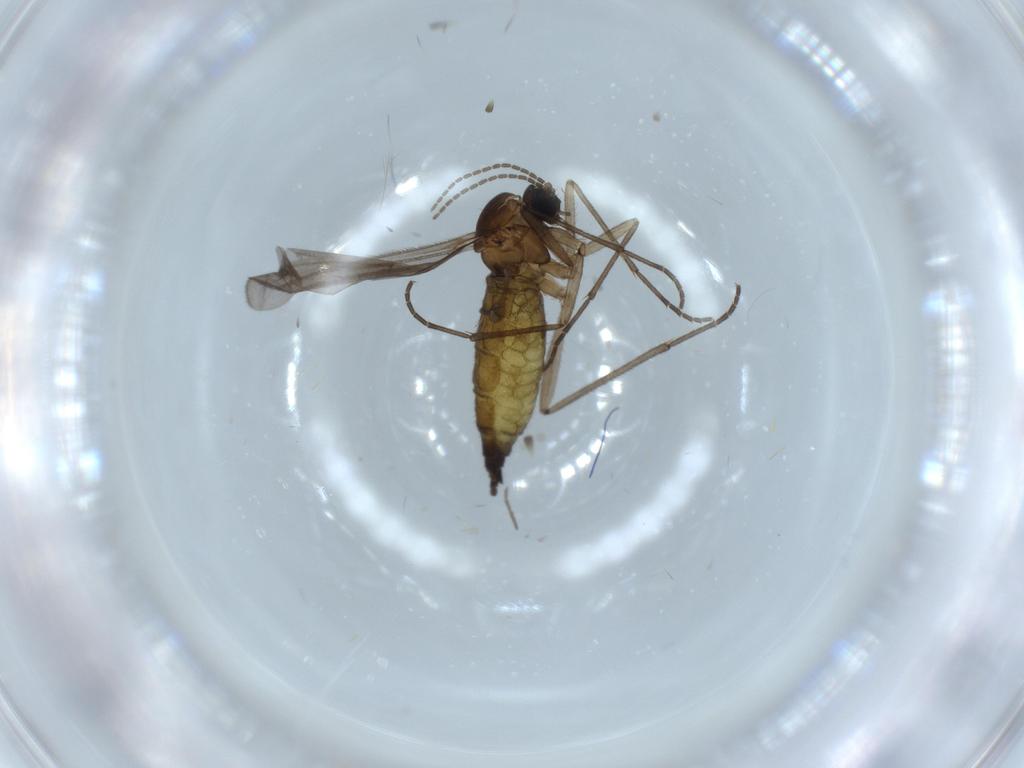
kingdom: Animalia
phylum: Arthropoda
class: Insecta
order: Diptera
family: Sciaridae
